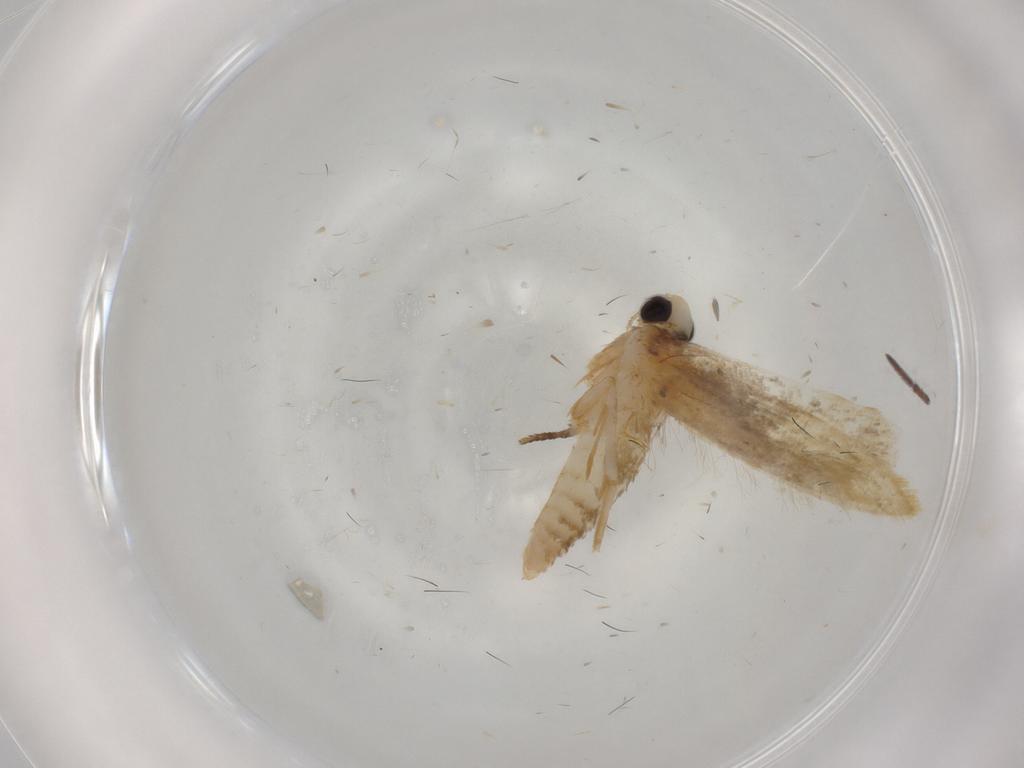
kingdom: Animalia
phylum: Arthropoda
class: Insecta
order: Lepidoptera
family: Tineidae
